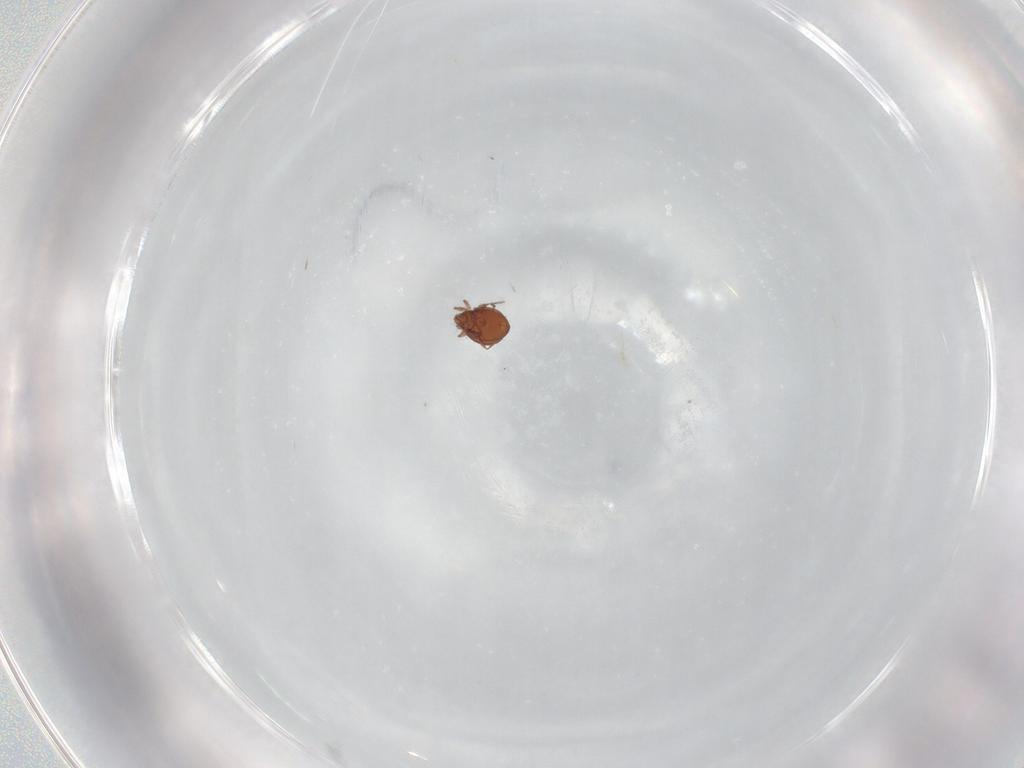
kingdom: Animalia
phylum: Arthropoda
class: Arachnida
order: Sarcoptiformes
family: Oribatulidae
